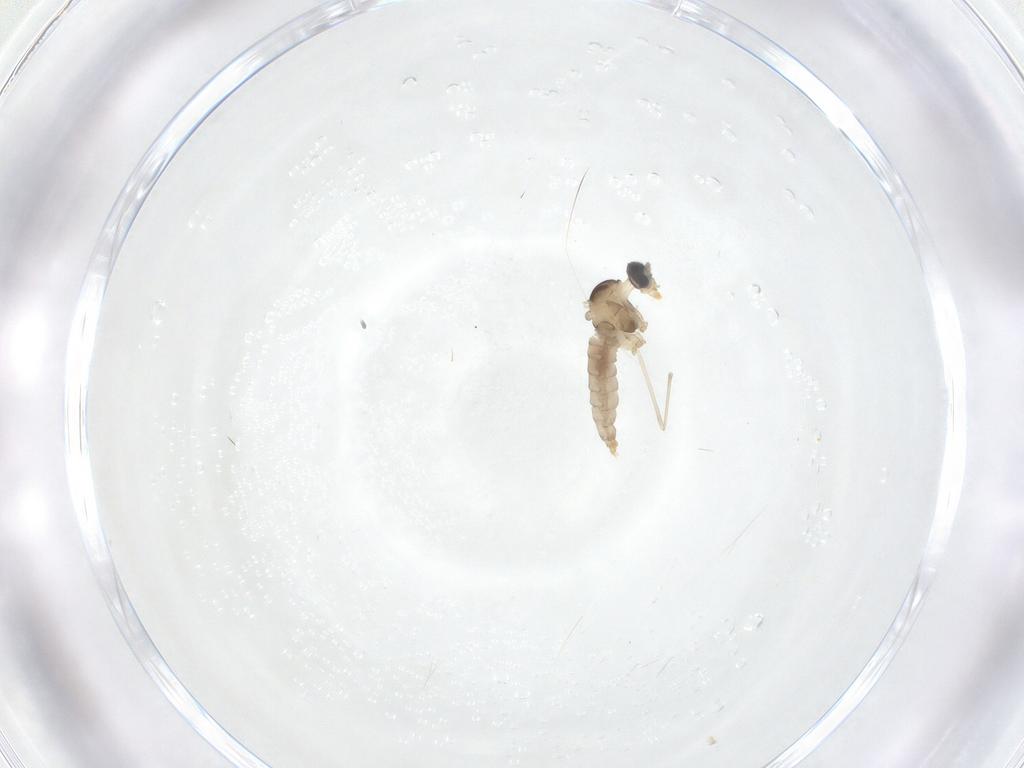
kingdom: Animalia
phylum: Arthropoda
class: Insecta
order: Diptera
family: Cecidomyiidae
